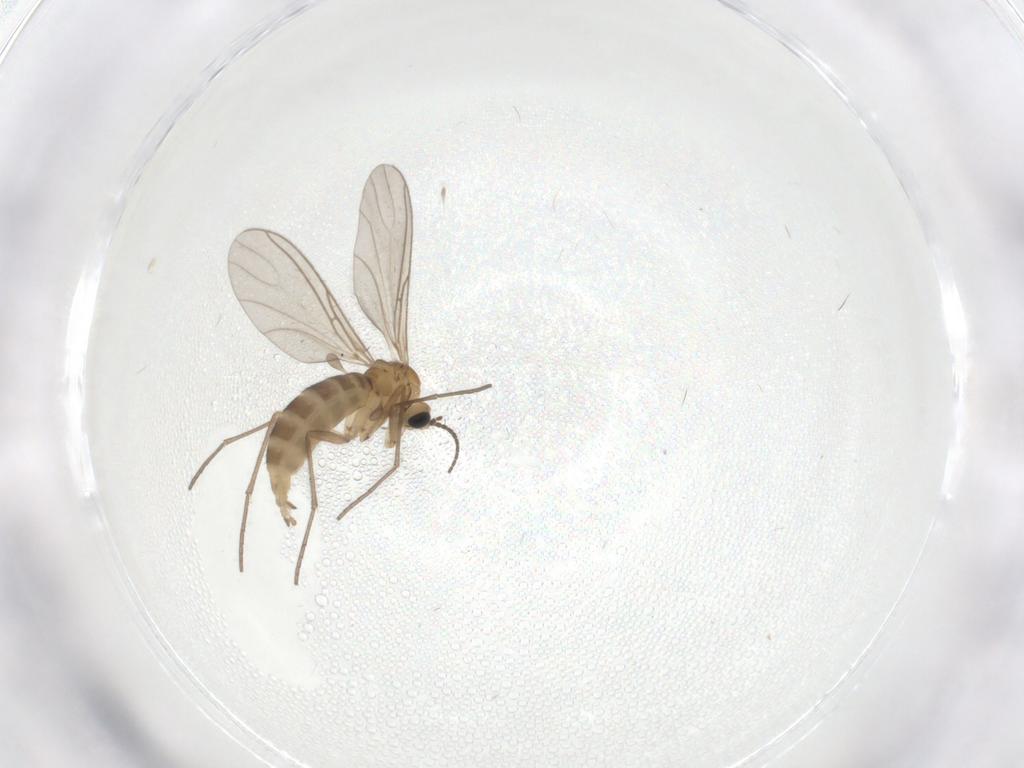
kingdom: Animalia
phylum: Arthropoda
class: Insecta
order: Diptera
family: Sciaridae
